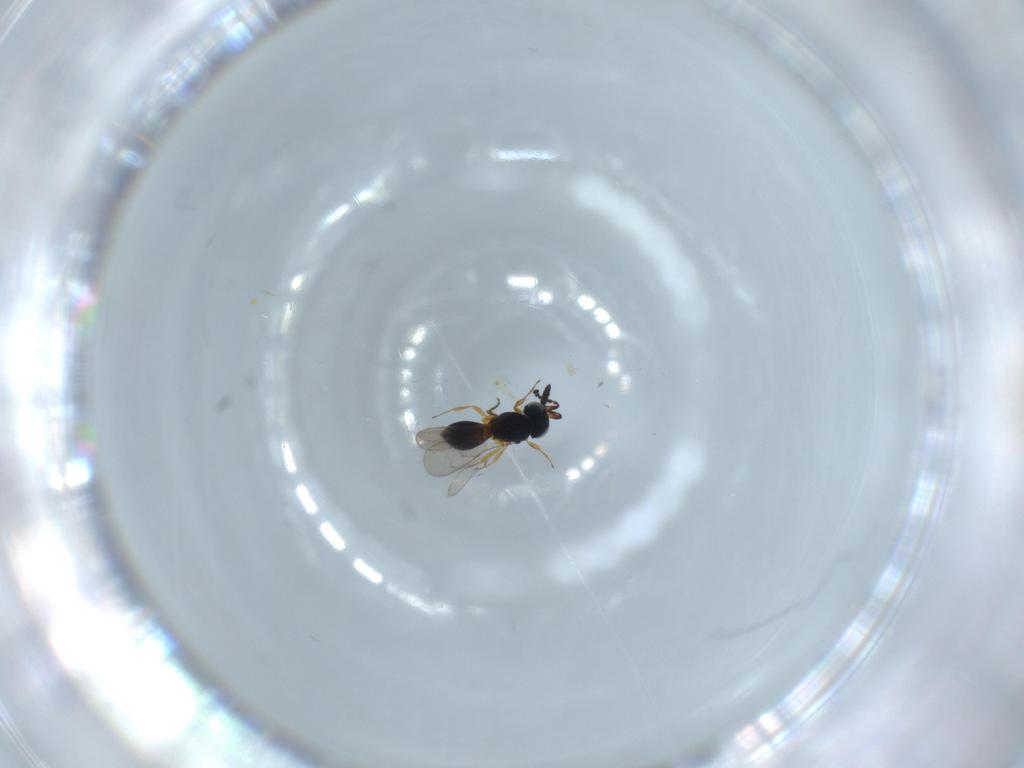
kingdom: Animalia
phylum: Arthropoda
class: Insecta
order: Hymenoptera
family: Scelionidae
